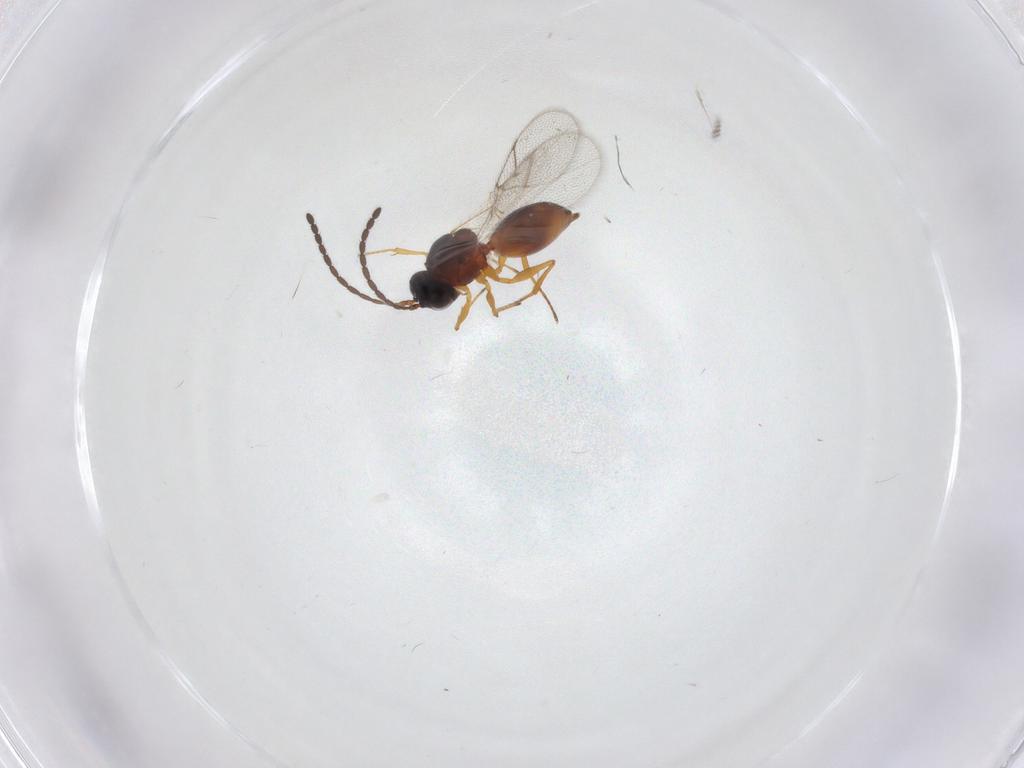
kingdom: Animalia
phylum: Arthropoda
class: Insecta
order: Hymenoptera
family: Figitidae
